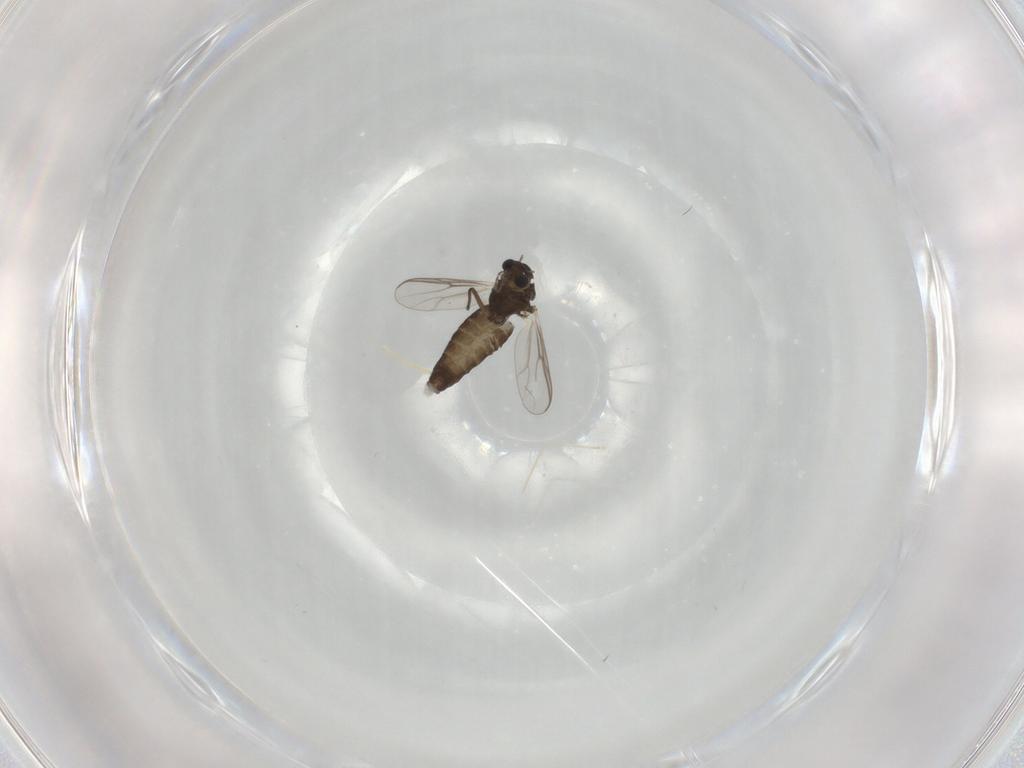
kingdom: Animalia
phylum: Arthropoda
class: Insecta
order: Diptera
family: Chironomidae
